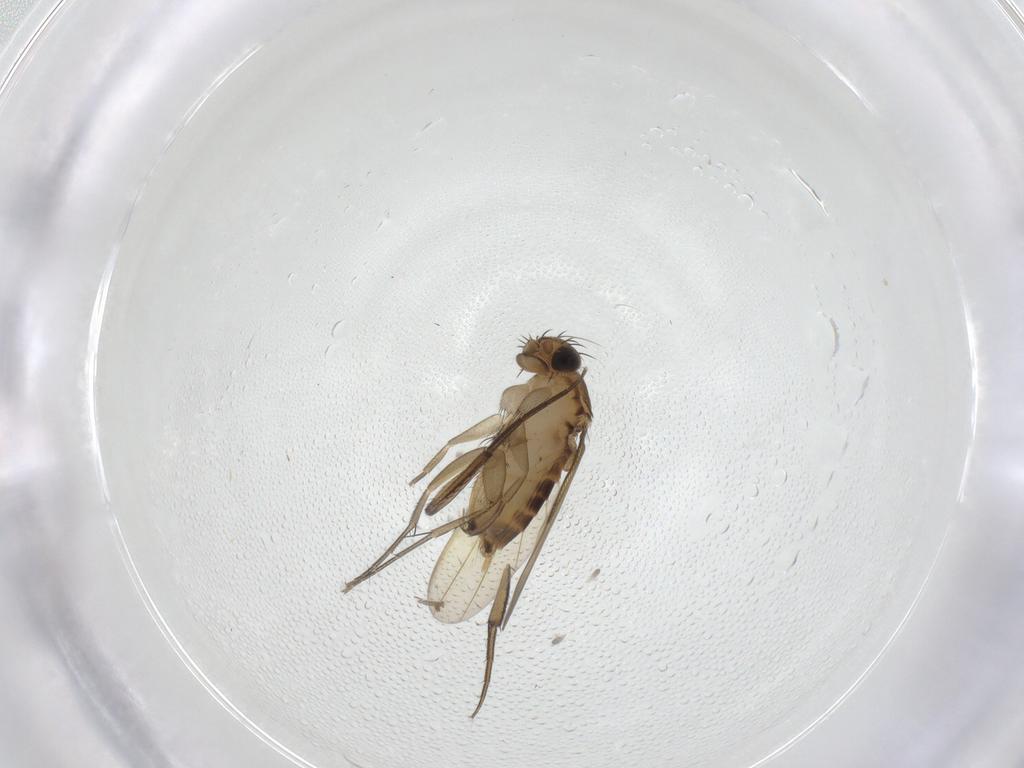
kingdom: Animalia
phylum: Arthropoda
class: Insecta
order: Diptera
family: Phoridae
